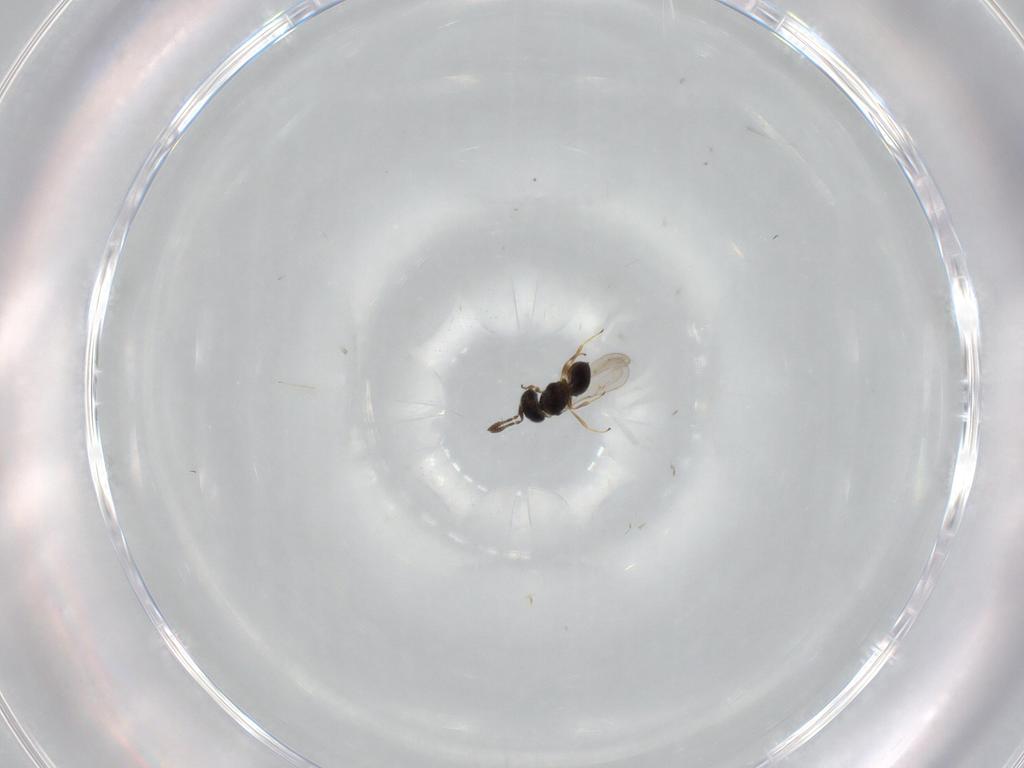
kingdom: Animalia
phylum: Arthropoda
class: Insecta
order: Hymenoptera
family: Scelionidae
